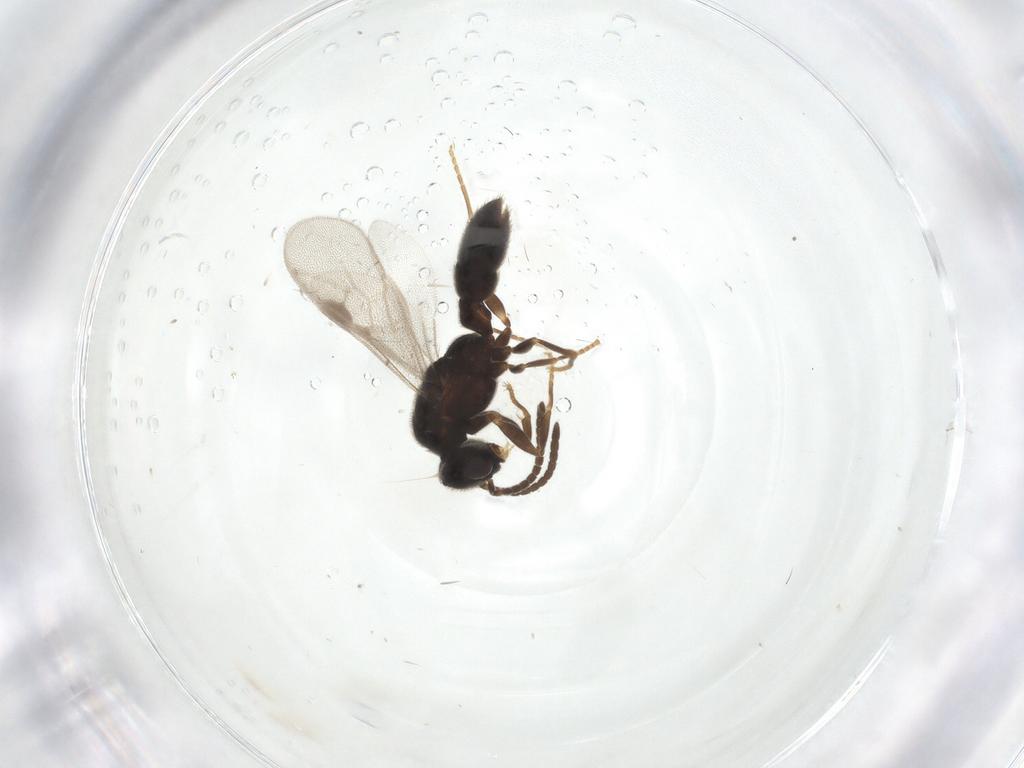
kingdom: Animalia
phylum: Arthropoda
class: Insecta
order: Hymenoptera
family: Formicidae
